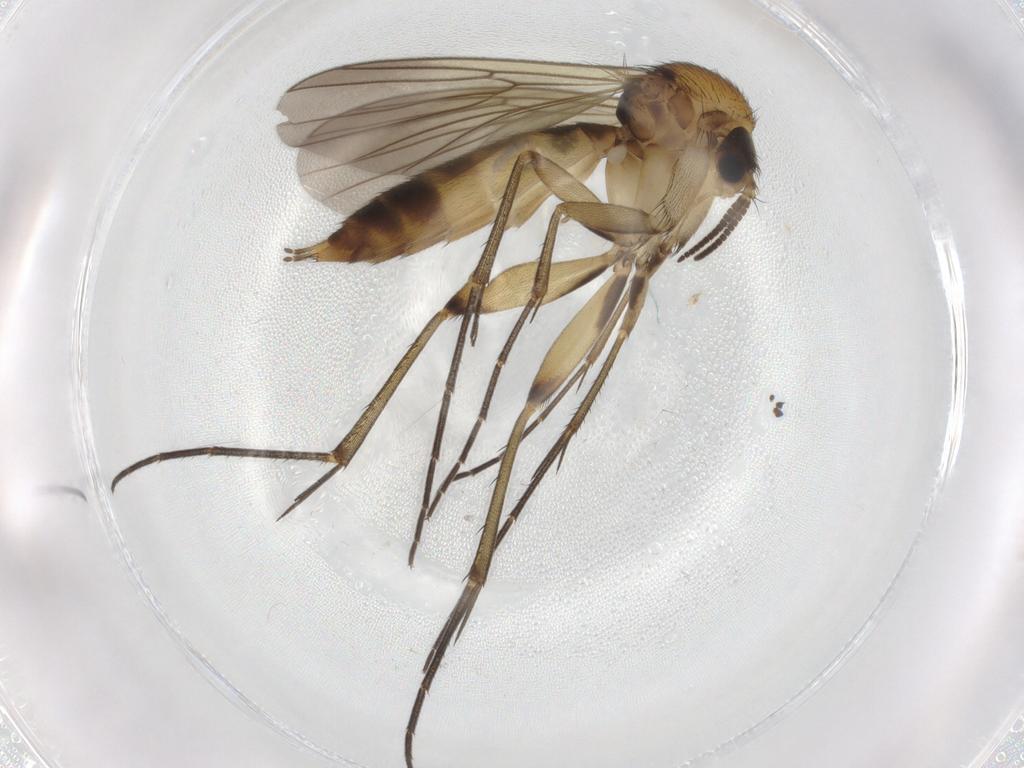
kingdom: Animalia
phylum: Arthropoda
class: Insecta
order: Diptera
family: Mycetophilidae
